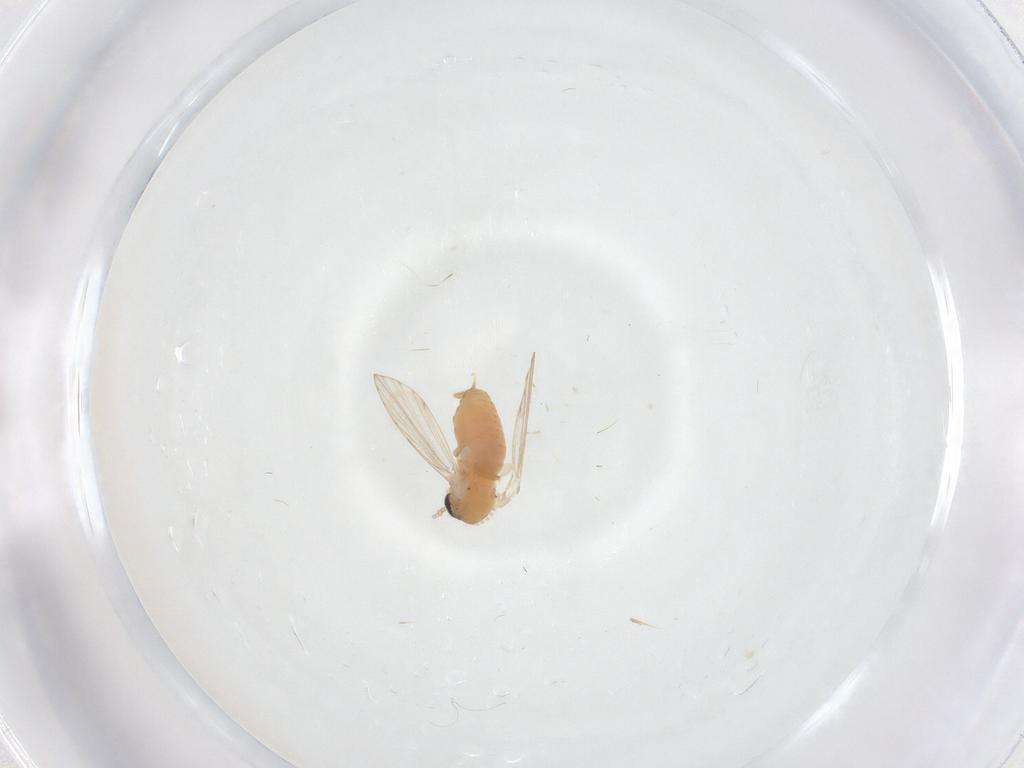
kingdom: Animalia
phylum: Arthropoda
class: Insecta
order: Diptera
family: Psychodidae
